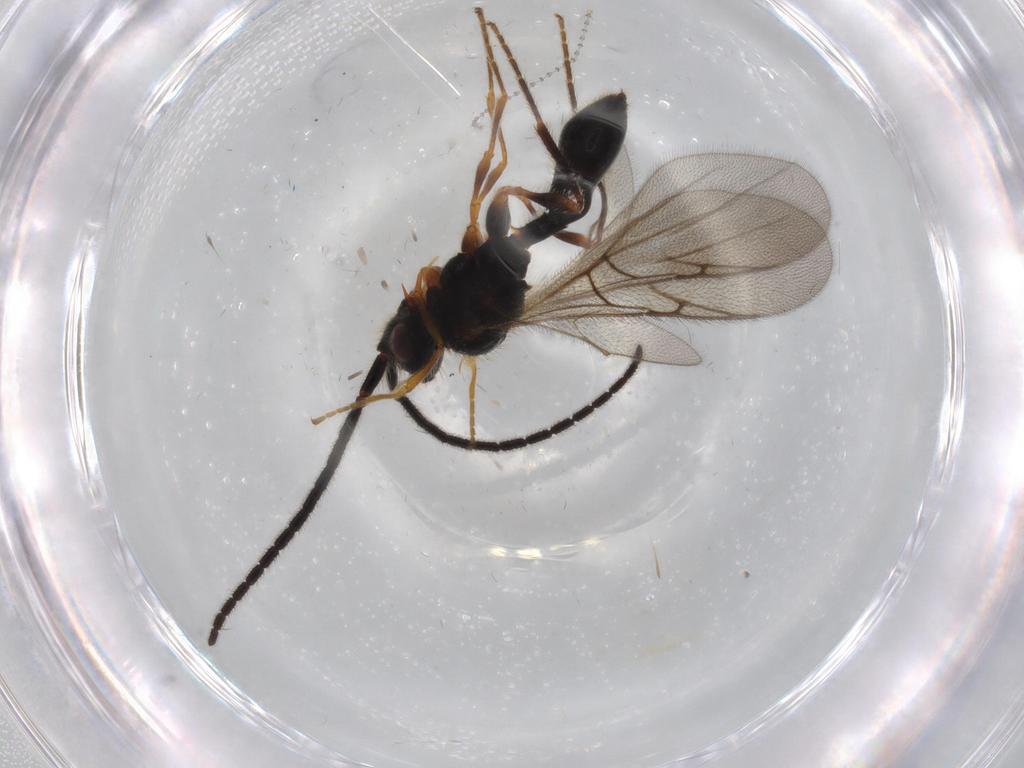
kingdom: Animalia
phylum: Arthropoda
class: Insecta
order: Hymenoptera
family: Diapriidae
